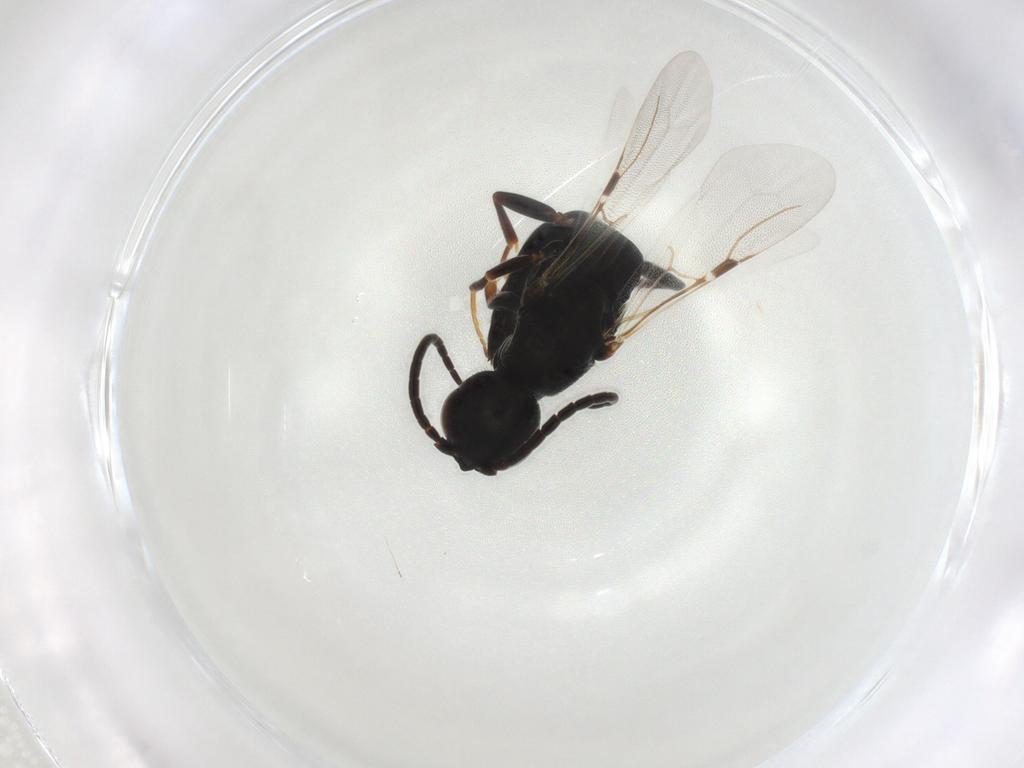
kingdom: Animalia
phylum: Arthropoda
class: Insecta
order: Hymenoptera
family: Bethylidae
